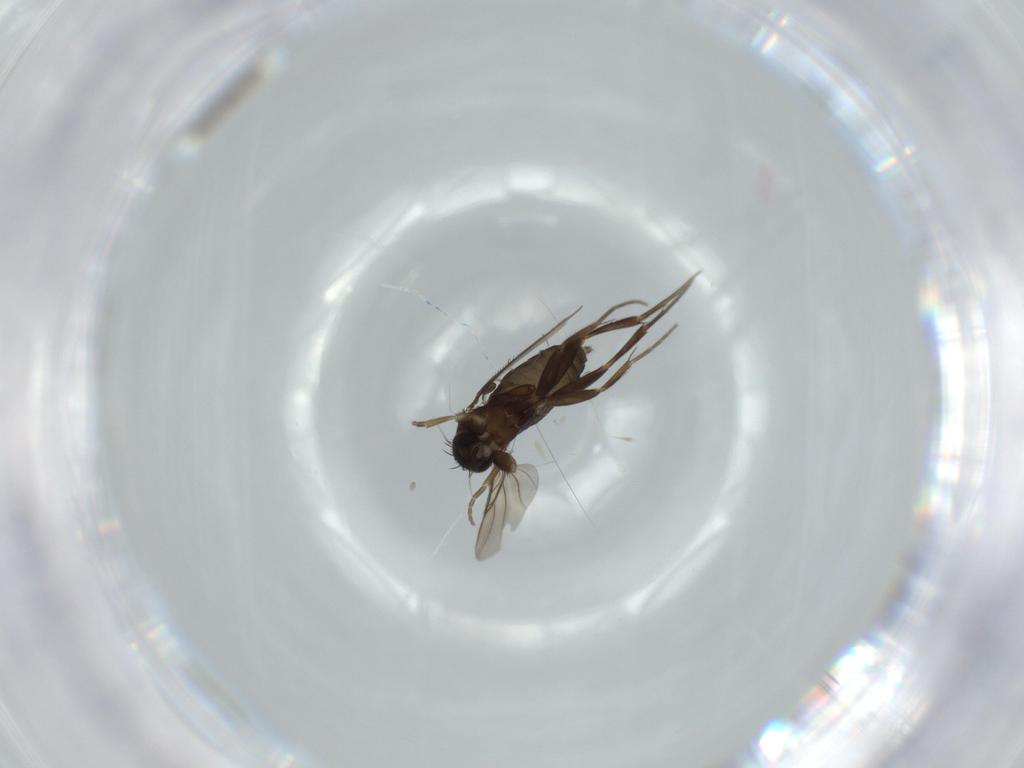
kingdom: Animalia
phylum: Arthropoda
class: Insecta
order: Diptera
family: Phoridae
